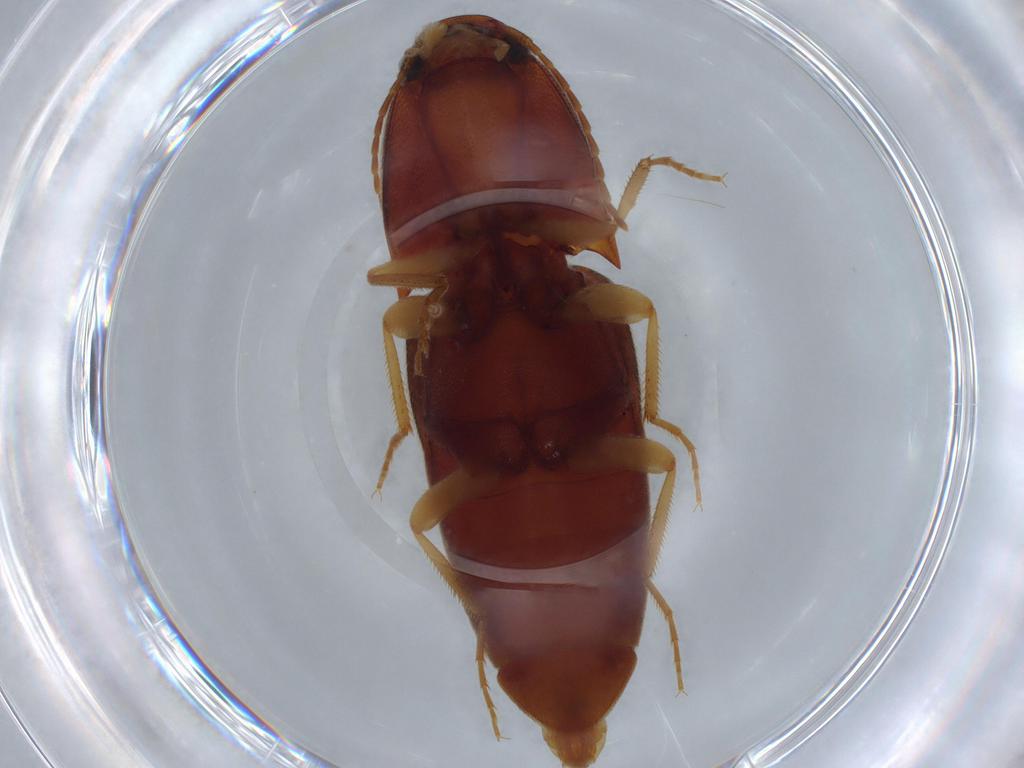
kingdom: Animalia
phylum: Arthropoda
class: Insecta
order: Coleoptera
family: Elateridae
